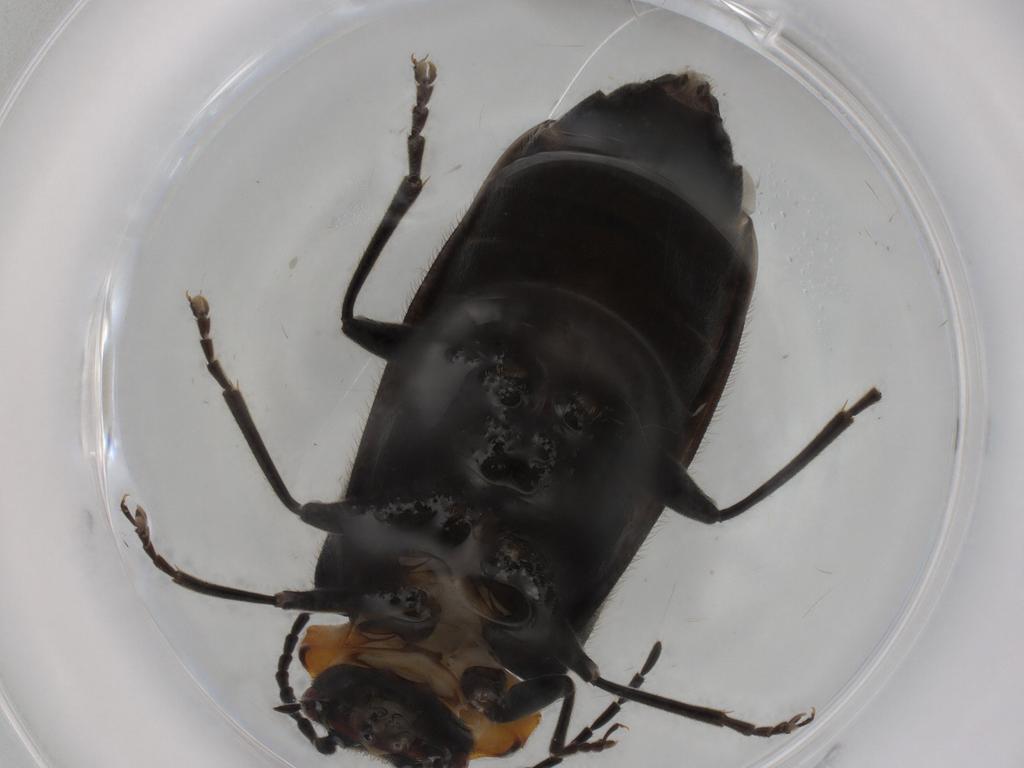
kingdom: Animalia
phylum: Arthropoda
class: Insecta
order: Coleoptera
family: Cantharidae
